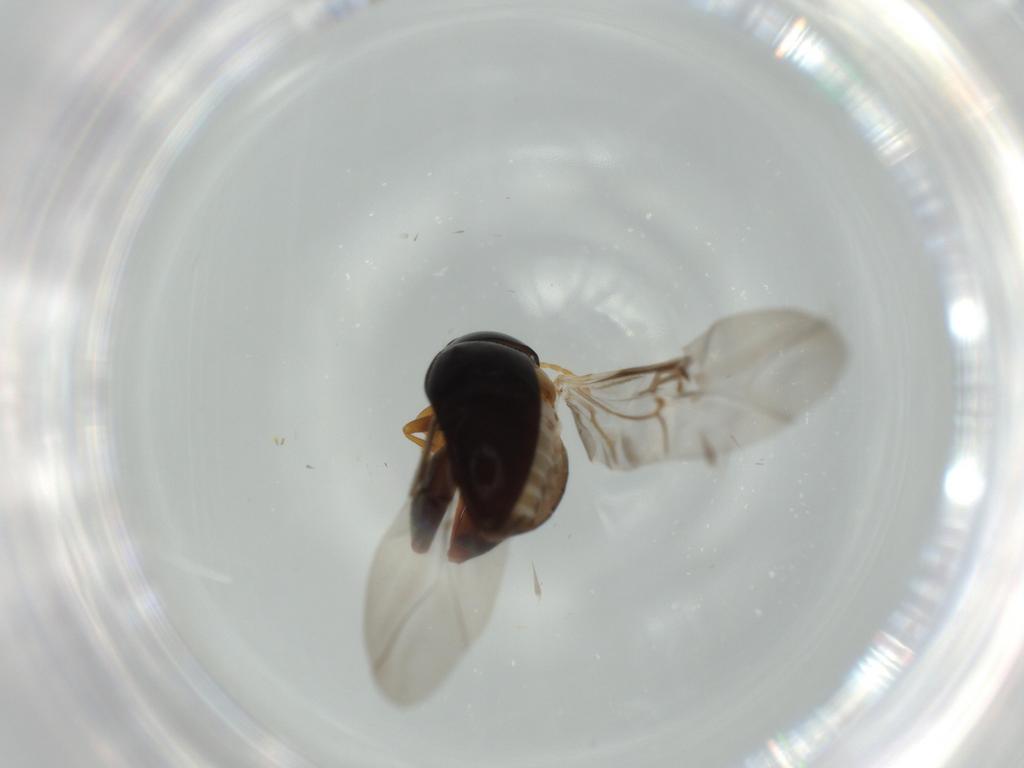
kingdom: Animalia
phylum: Arthropoda
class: Insecta
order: Coleoptera
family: Chrysomelidae
